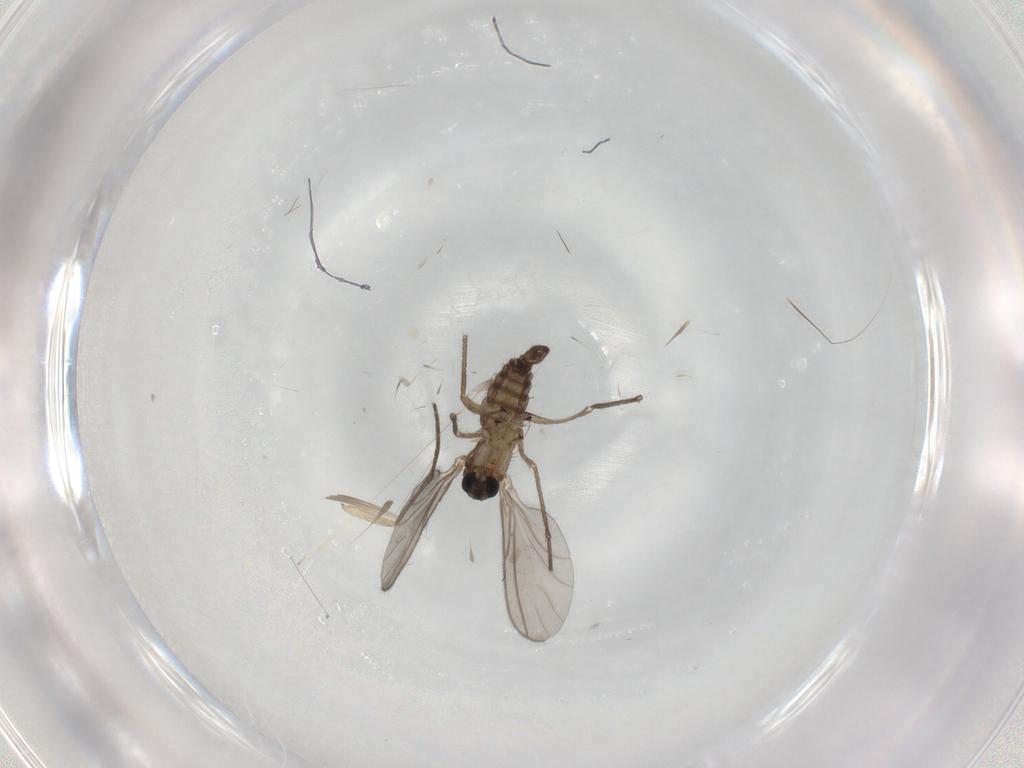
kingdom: Animalia
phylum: Arthropoda
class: Insecta
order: Diptera
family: Sciaridae
